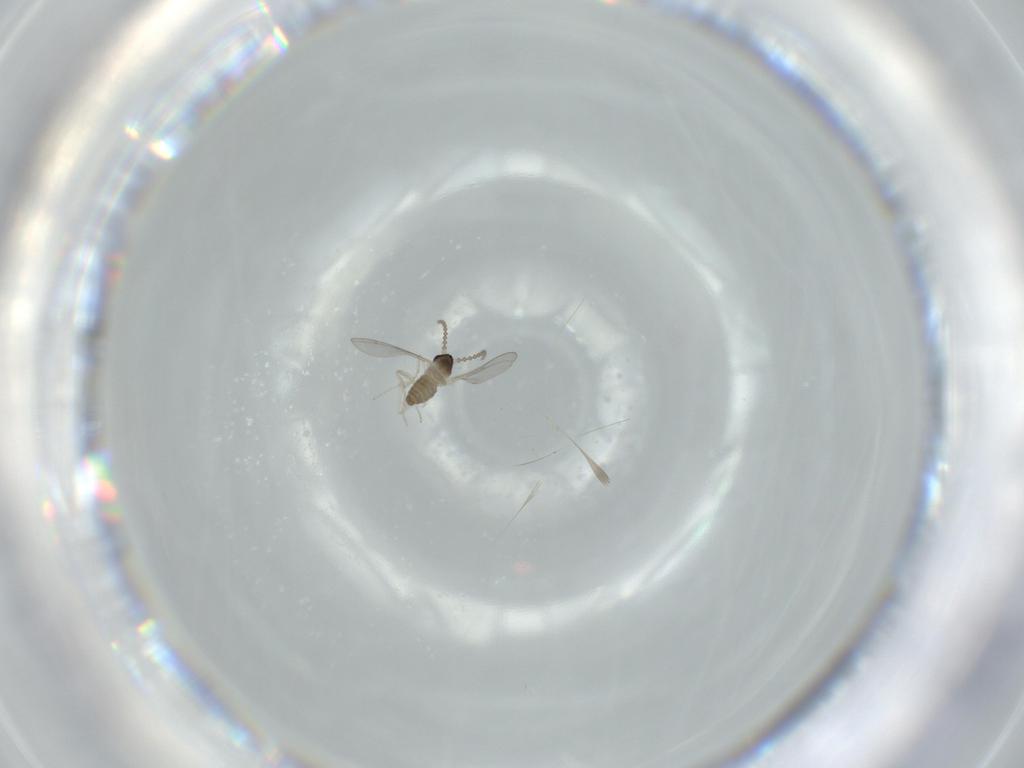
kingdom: Animalia
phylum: Arthropoda
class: Insecta
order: Diptera
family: Cecidomyiidae
